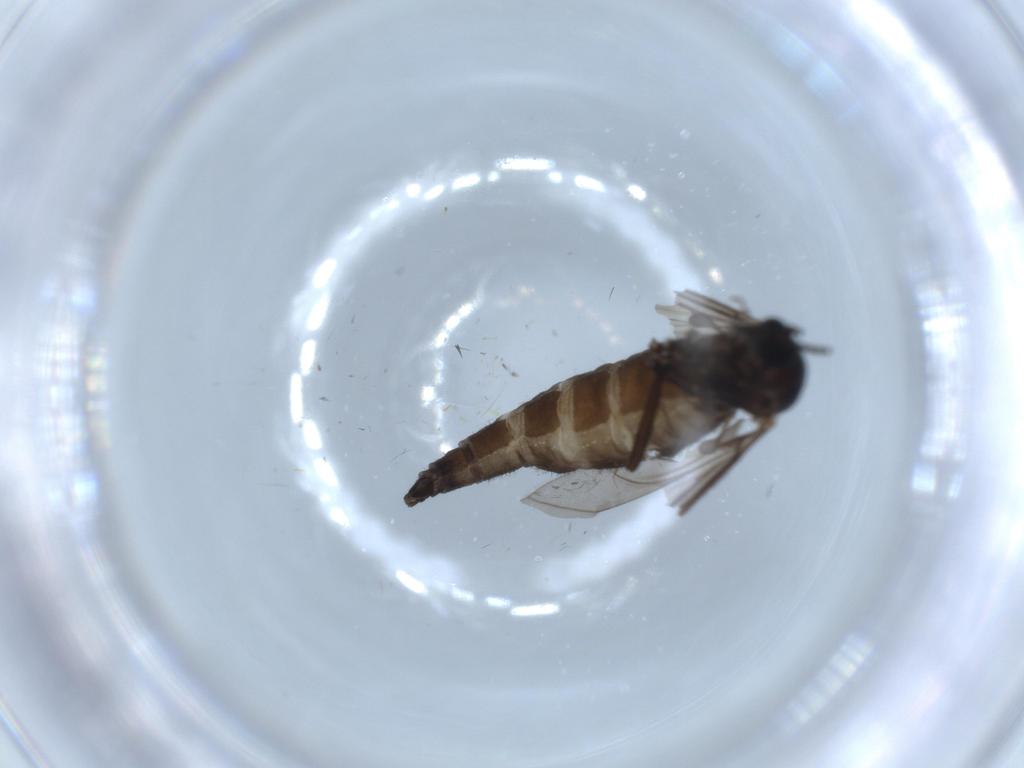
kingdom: Animalia
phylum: Arthropoda
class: Insecta
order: Diptera
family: Sciaridae
